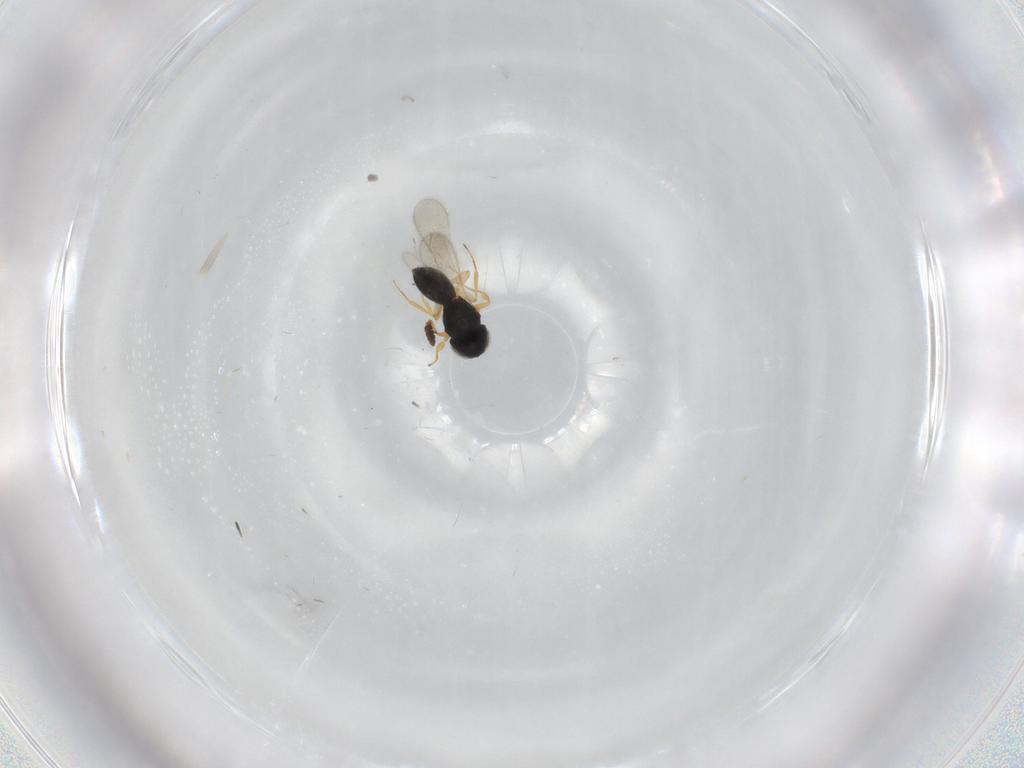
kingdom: Animalia
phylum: Arthropoda
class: Insecta
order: Hymenoptera
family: Scelionidae
